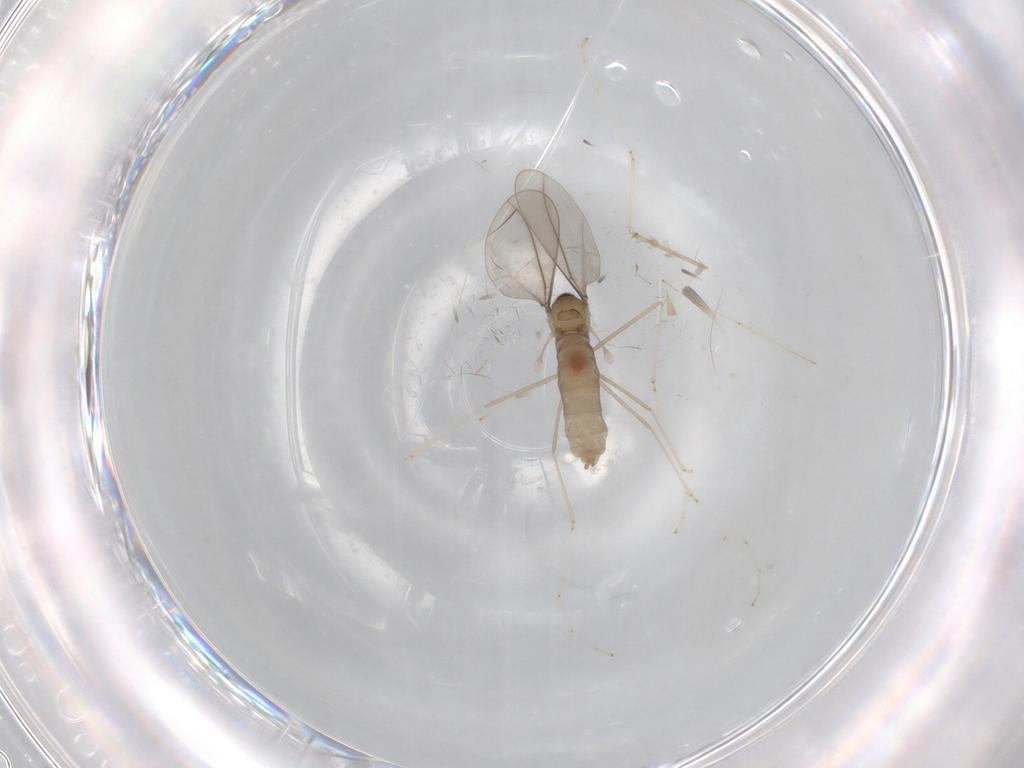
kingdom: Animalia
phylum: Arthropoda
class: Insecta
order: Diptera
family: Cecidomyiidae
